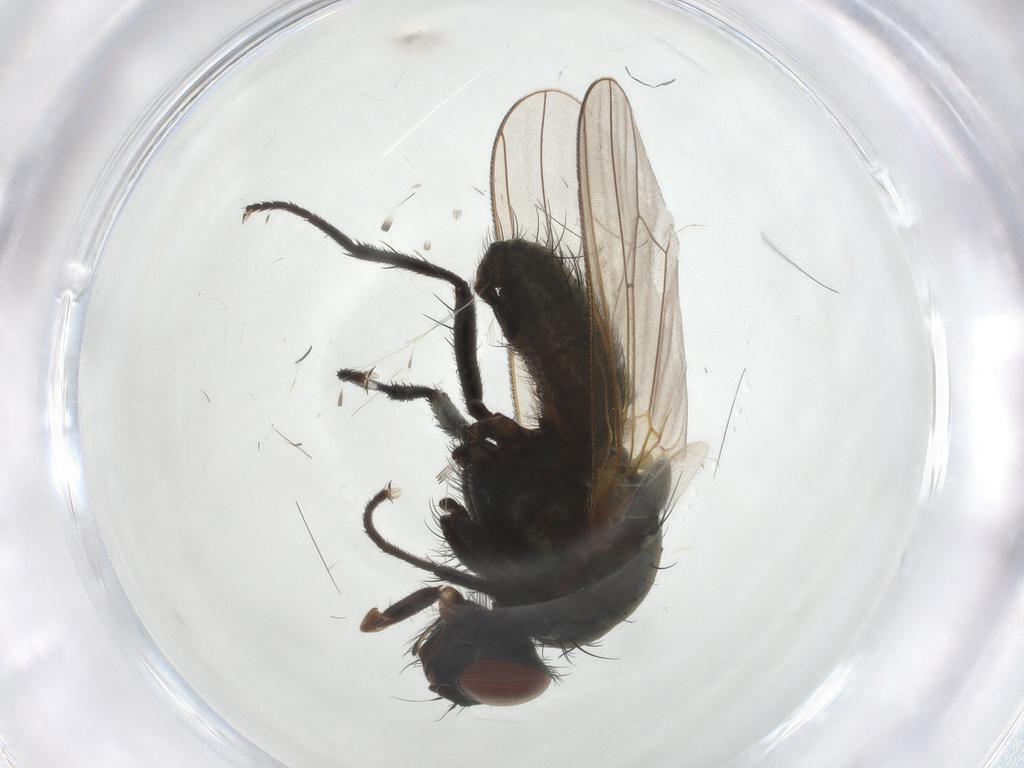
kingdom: Animalia
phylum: Arthropoda
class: Insecta
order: Diptera
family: Anthomyiidae
